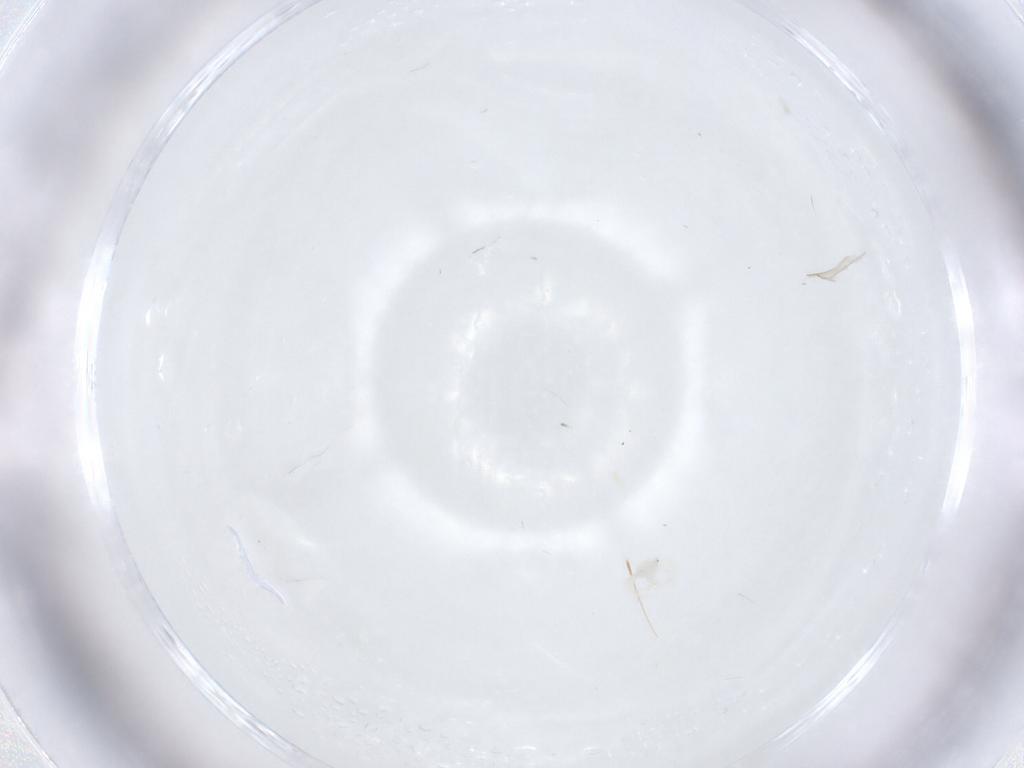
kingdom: Animalia
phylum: Arthropoda
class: Arachnida
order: Trombidiformes
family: Anystidae
